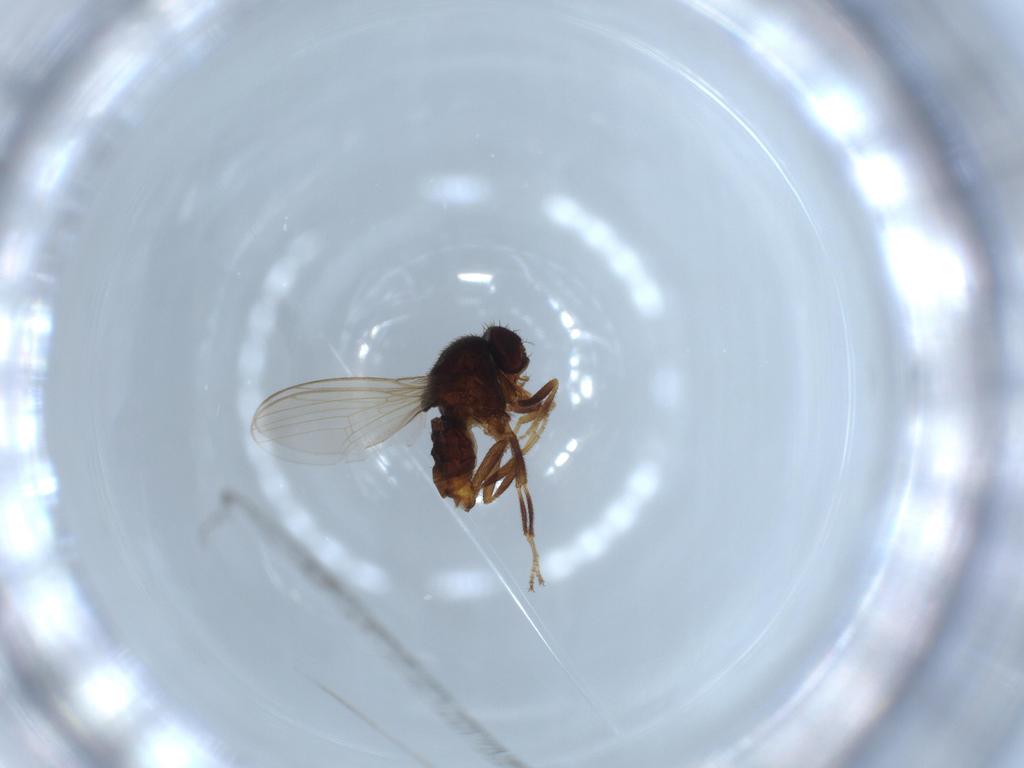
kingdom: Animalia
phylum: Arthropoda
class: Insecta
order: Diptera
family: Drosophilidae
